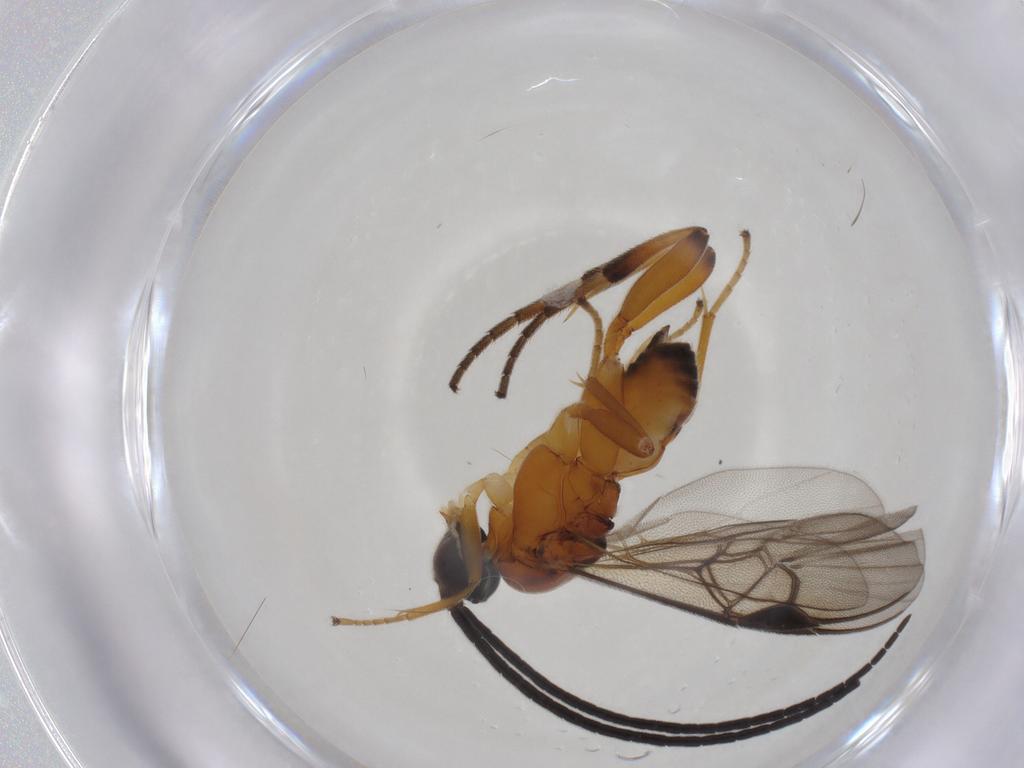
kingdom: Animalia
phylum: Arthropoda
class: Insecta
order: Hymenoptera
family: Braconidae
